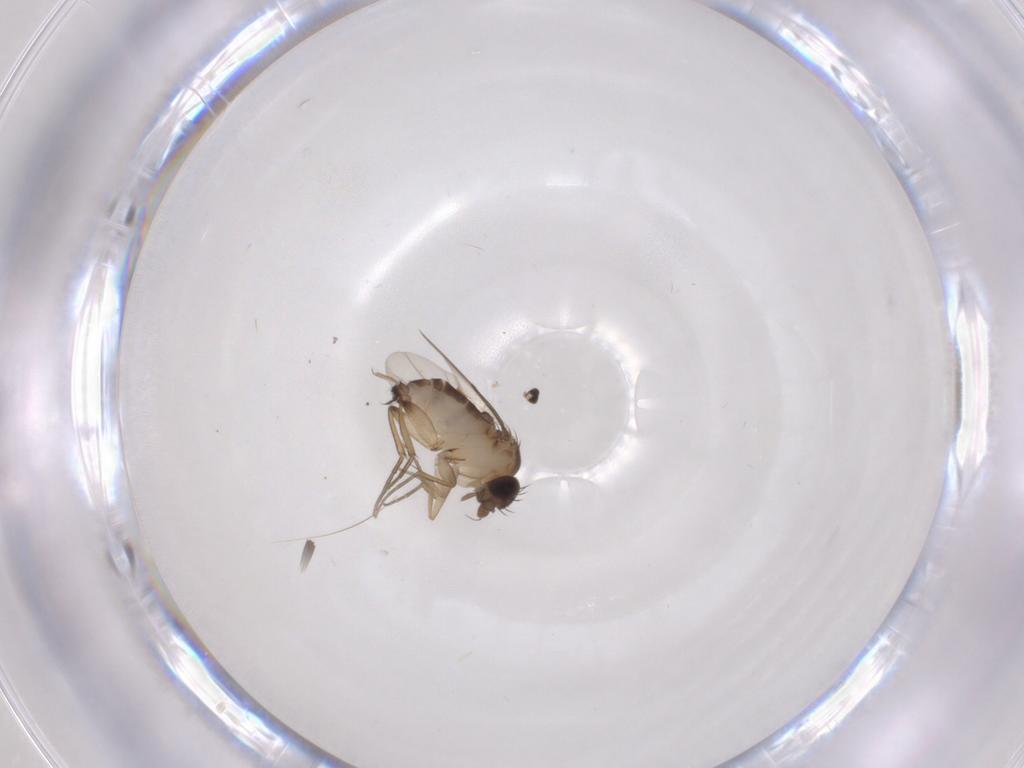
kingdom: Animalia
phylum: Arthropoda
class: Insecta
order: Diptera
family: Phoridae
